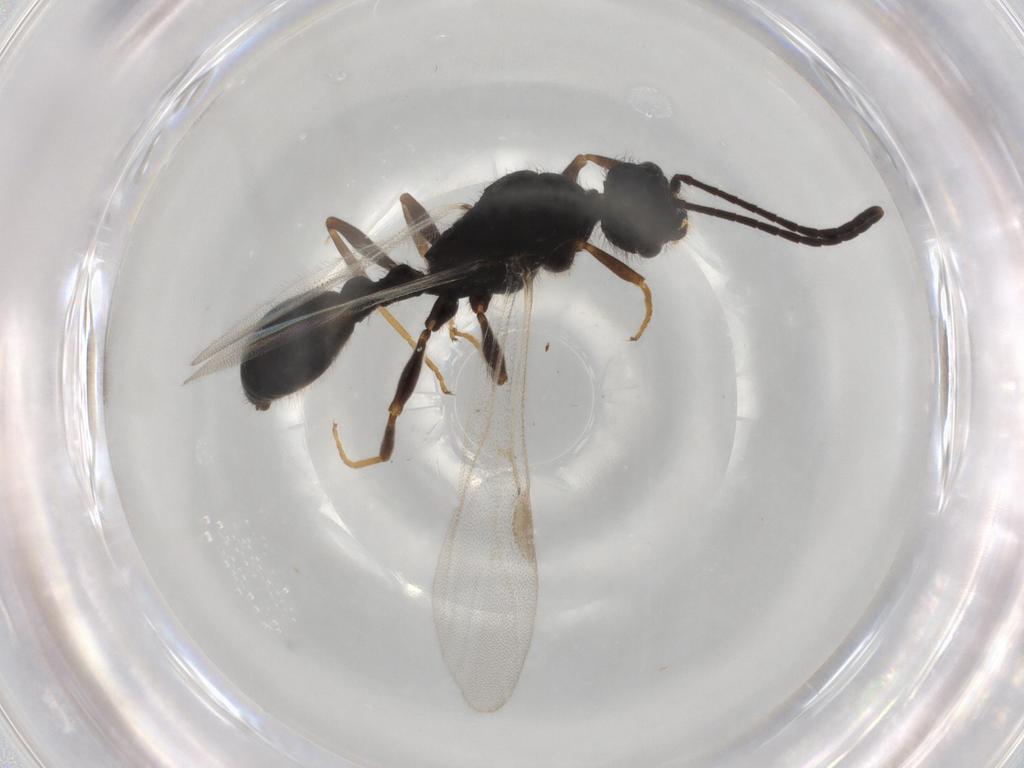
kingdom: Animalia
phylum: Arthropoda
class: Insecta
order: Hymenoptera
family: Formicidae
